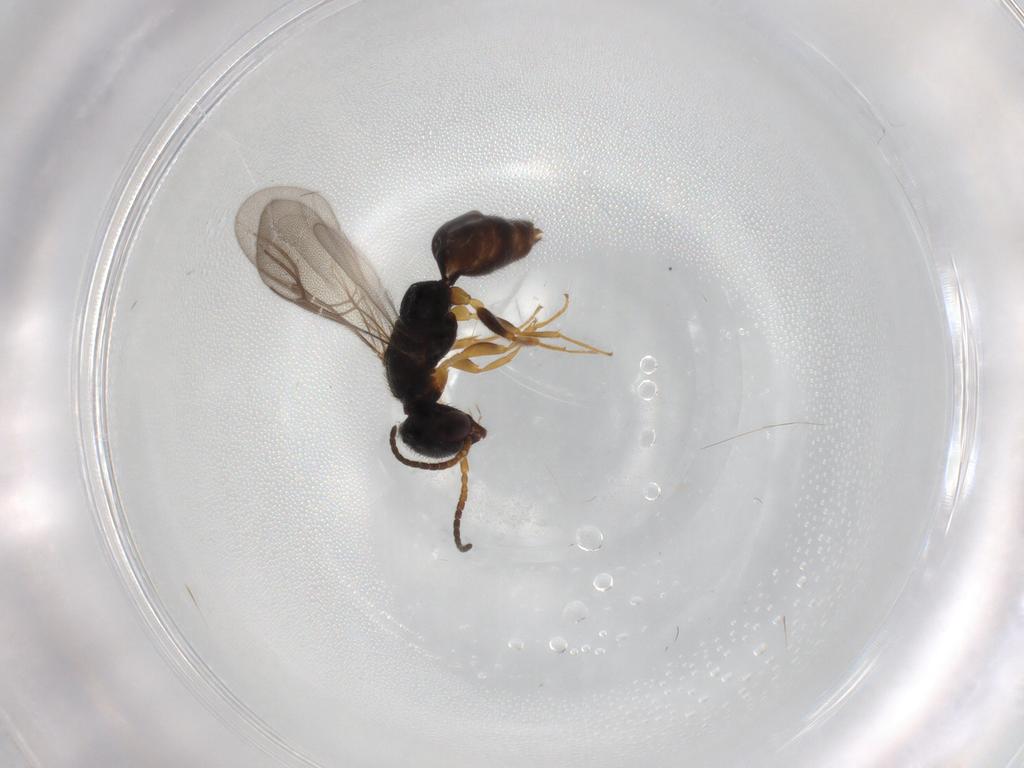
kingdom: Animalia
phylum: Arthropoda
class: Insecta
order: Hymenoptera
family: Bethylidae
